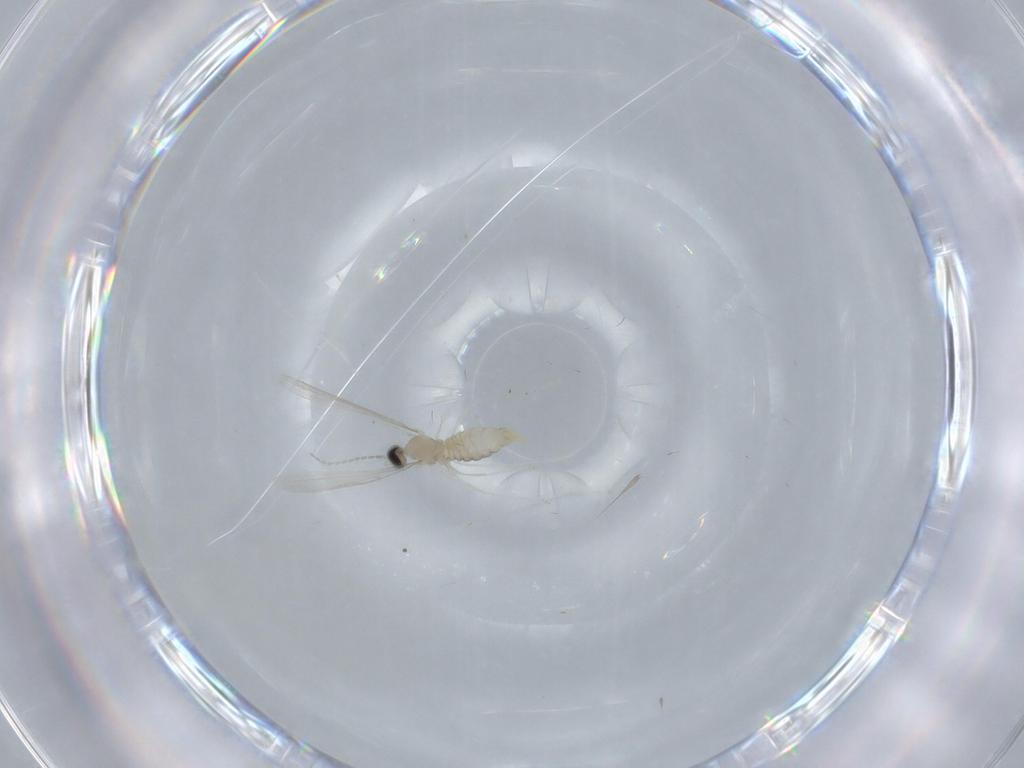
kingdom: Animalia
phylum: Arthropoda
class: Insecta
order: Diptera
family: Cecidomyiidae
